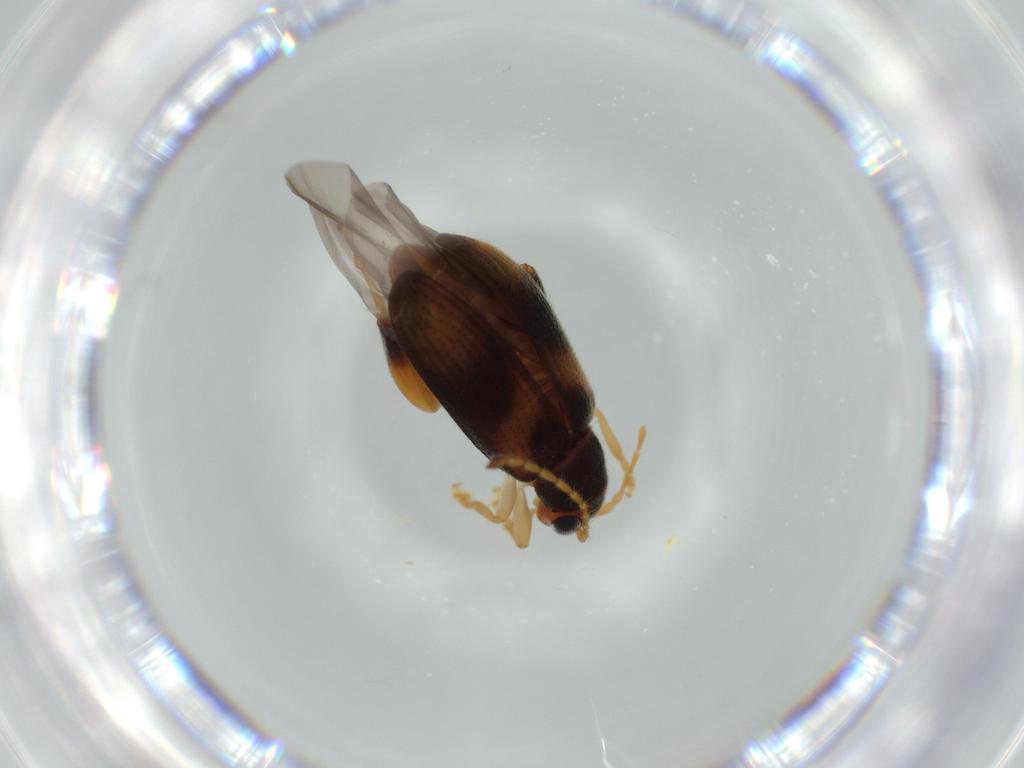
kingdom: Animalia
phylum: Arthropoda
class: Insecta
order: Coleoptera
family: Chrysomelidae
